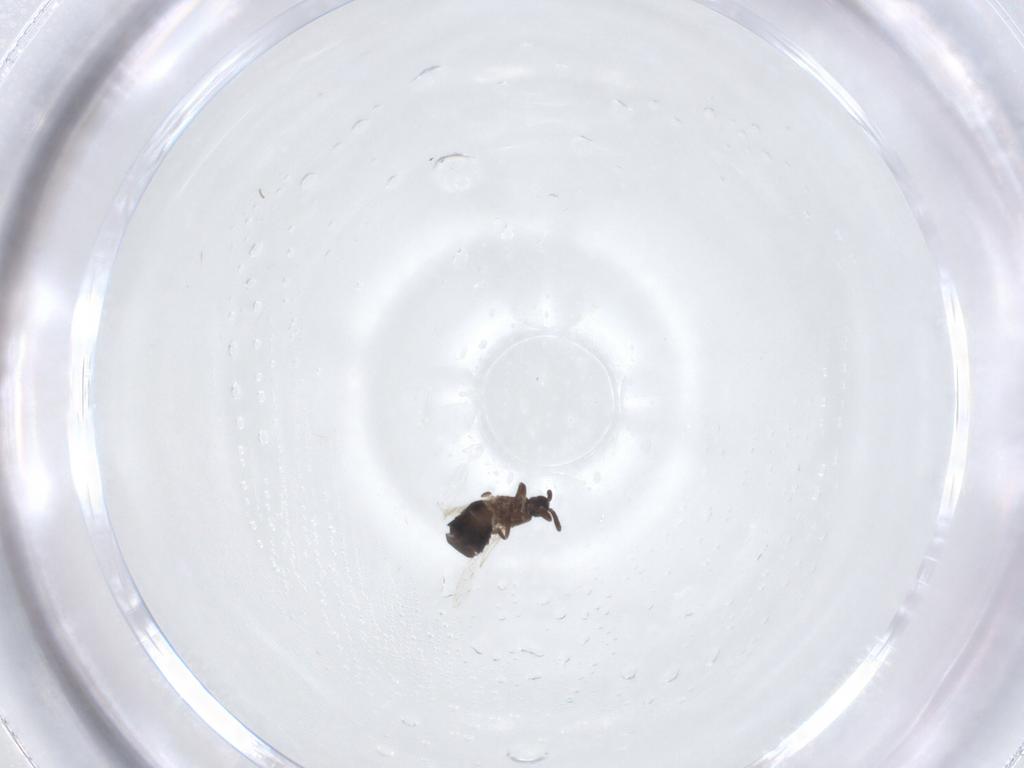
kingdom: Animalia
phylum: Arthropoda
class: Insecta
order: Diptera
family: Scatopsidae
